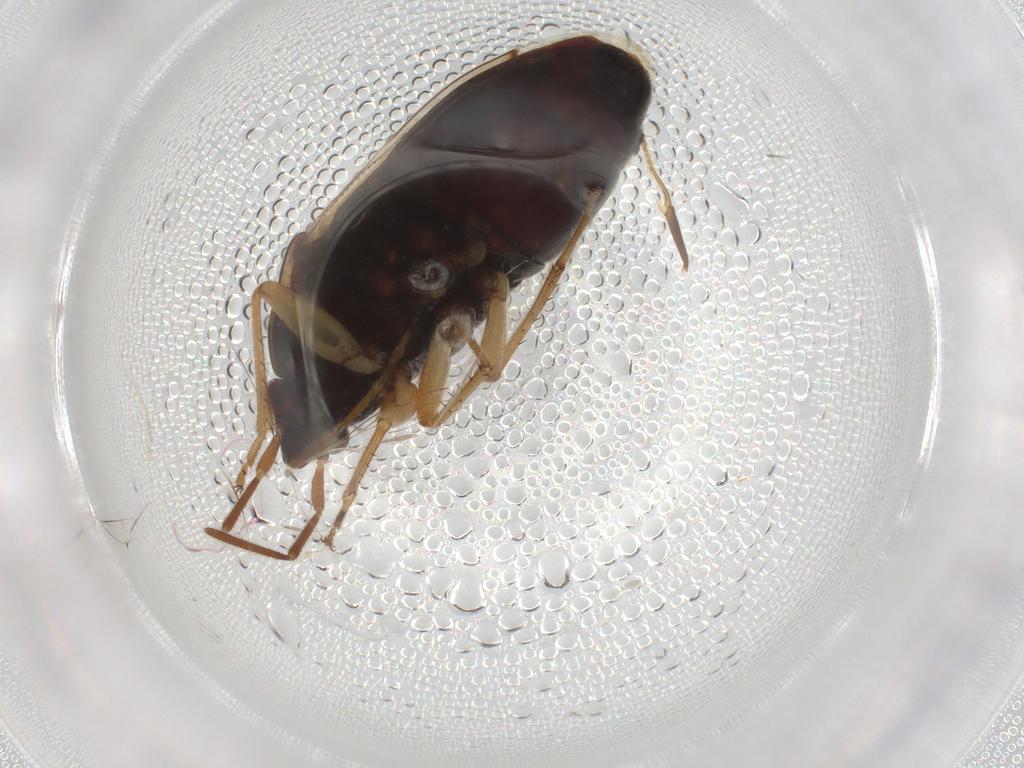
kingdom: Animalia
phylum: Arthropoda
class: Insecta
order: Hemiptera
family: Rhyparochromidae
